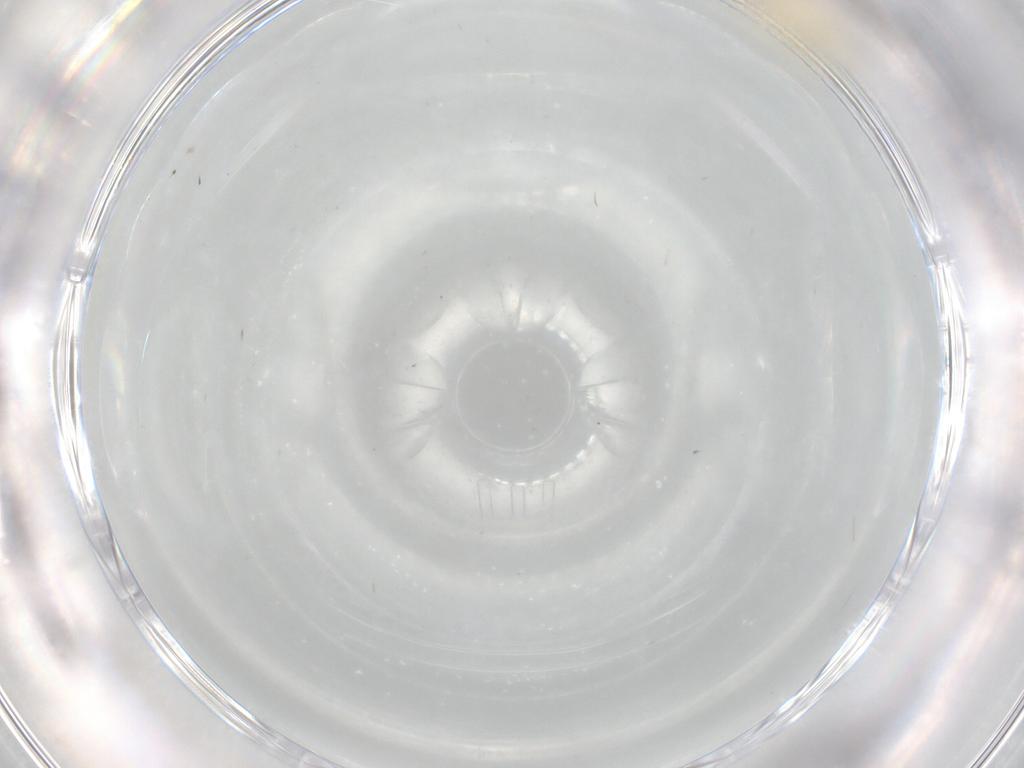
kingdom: Animalia
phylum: Arthropoda
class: Insecta
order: Diptera
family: Cecidomyiidae
